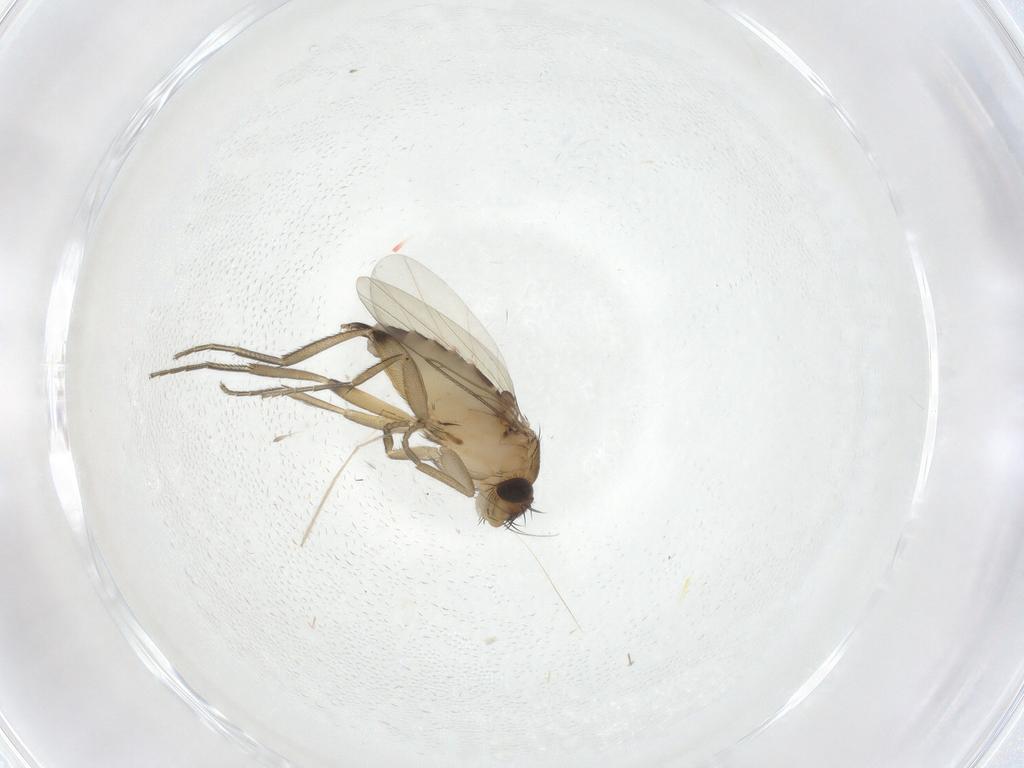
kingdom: Animalia
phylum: Arthropoda
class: Insecta
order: Diptera
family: Phoridae
